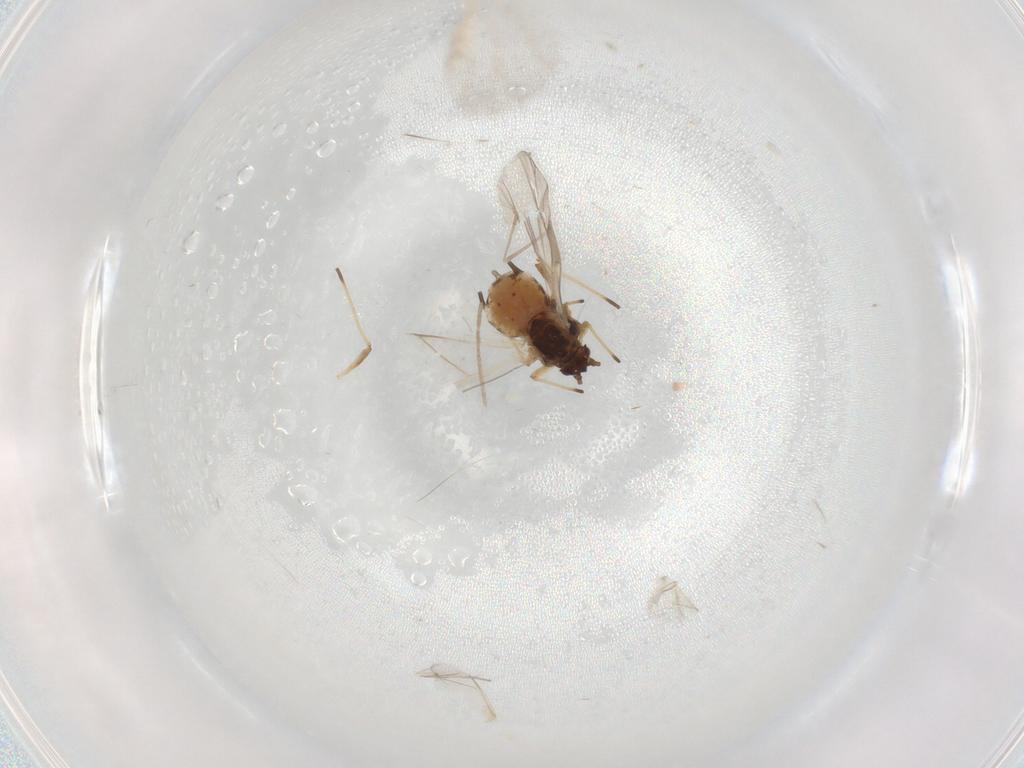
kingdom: Animalia
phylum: Arthropoda
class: Insecta
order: Hemiptera
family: Aphididae
